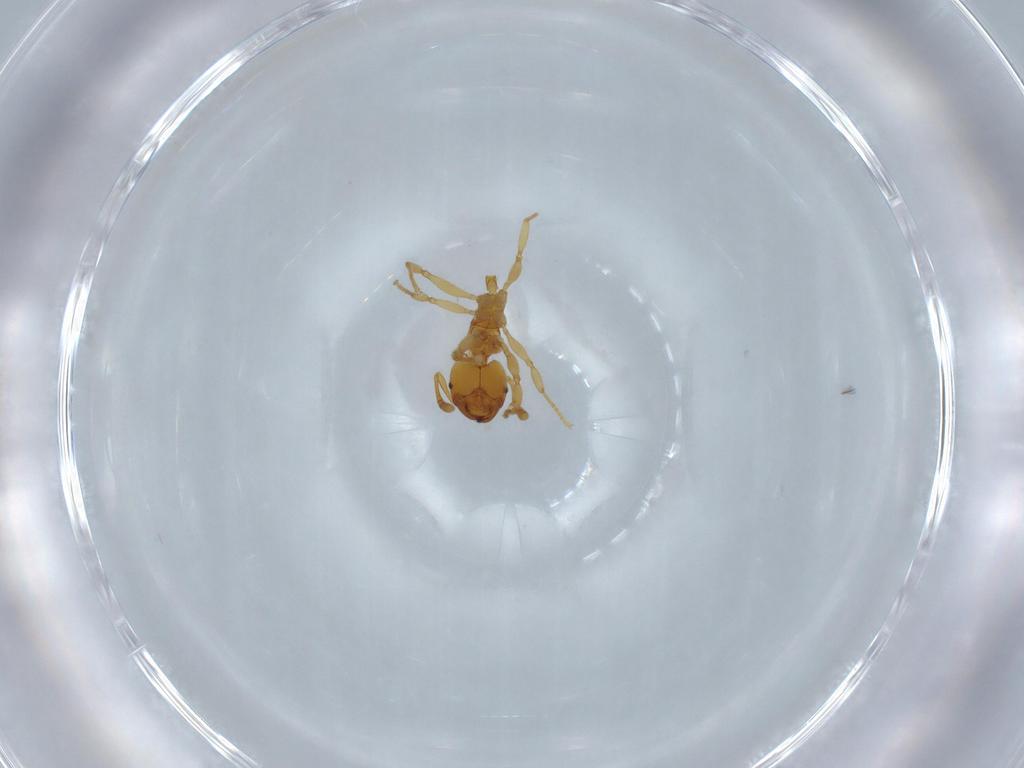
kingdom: Animalia
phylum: Arthropoda
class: Insecta
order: Hymenoptera
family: Formicidae
